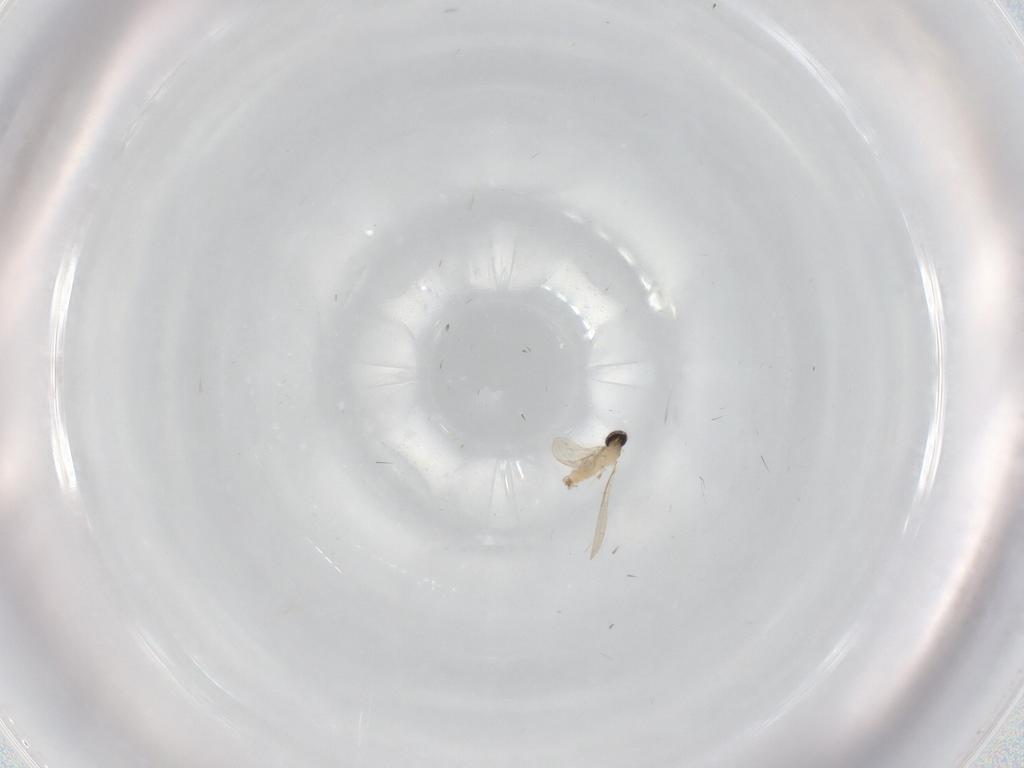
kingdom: Animalia
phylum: Arthropoda
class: Insecta
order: Diptera
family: Cecidomyiidae
